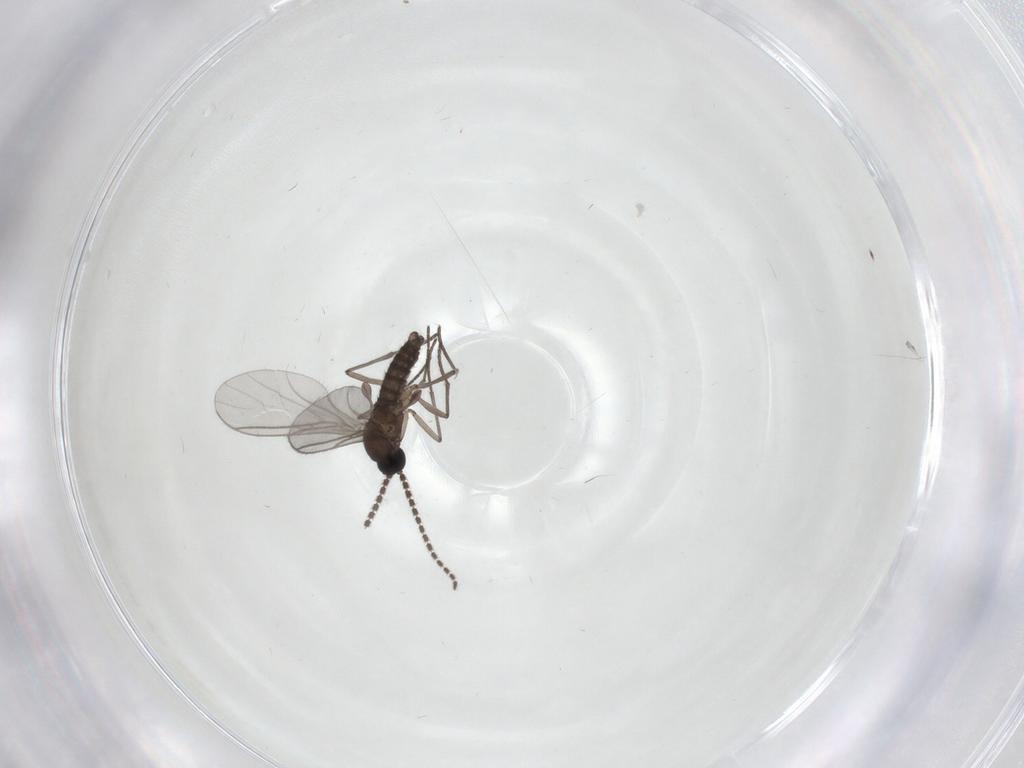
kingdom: Animalia
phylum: Arthropoda
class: Insecta
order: Diptera
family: Sciaridae
